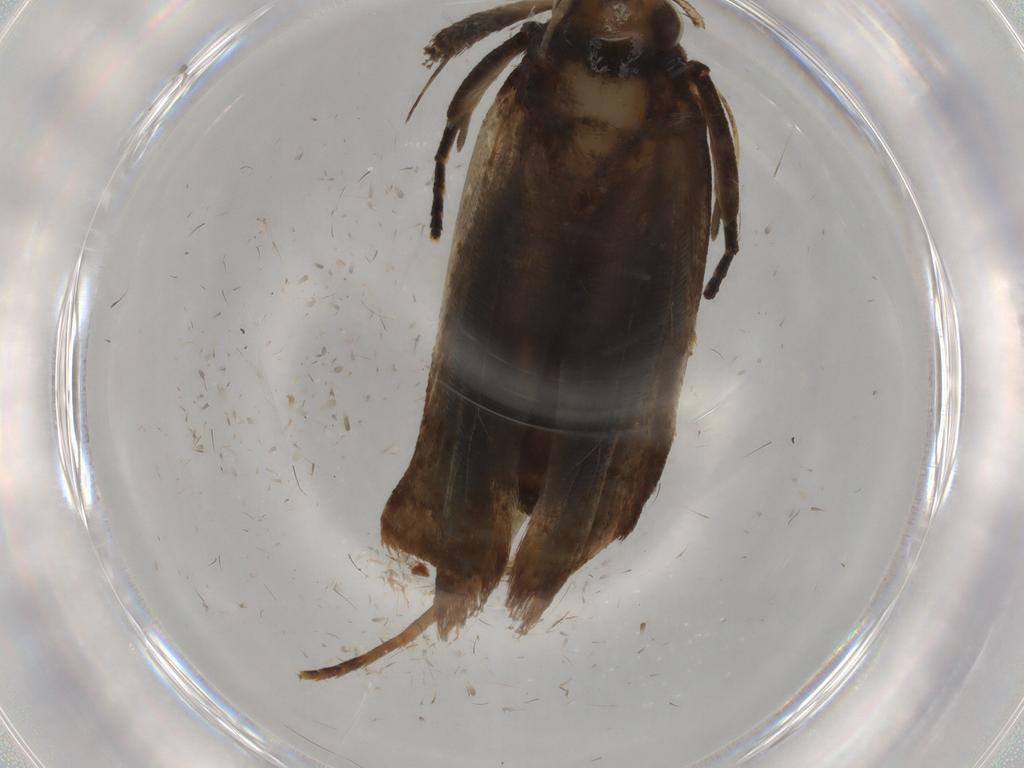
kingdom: Animalia
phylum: Arthropoda
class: Insecta
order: Lepidoptera
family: Gelechiidae
